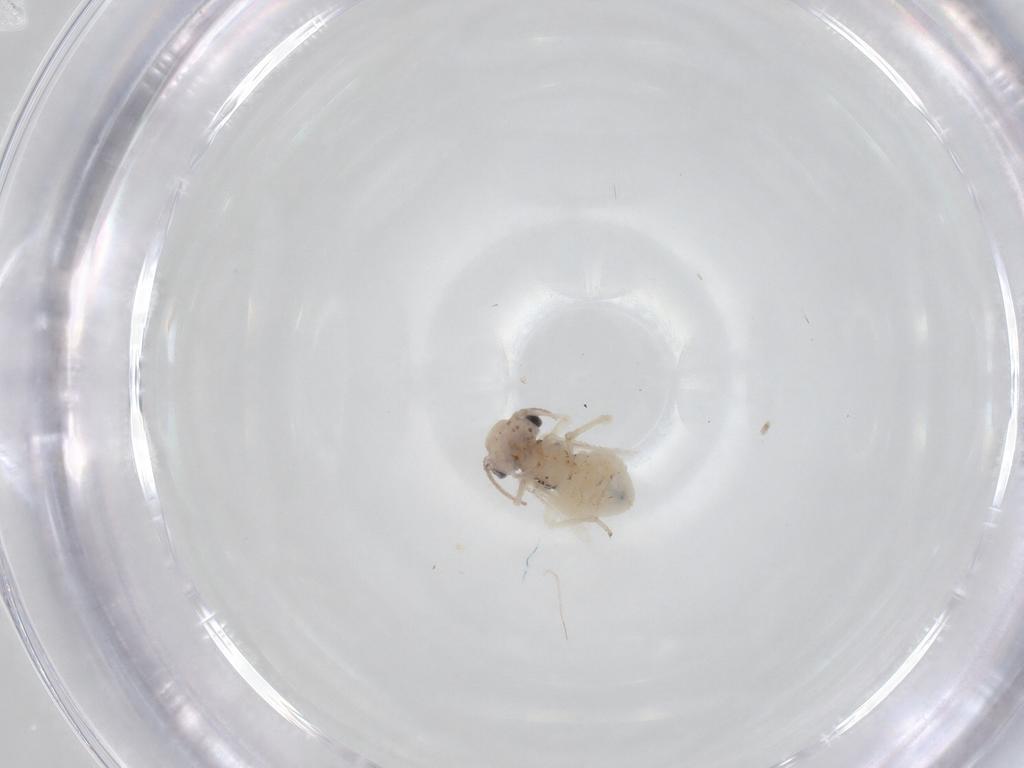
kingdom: Animalia
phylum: Arthropoda
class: Insecta
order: Psocodea
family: Caeciliusidae
